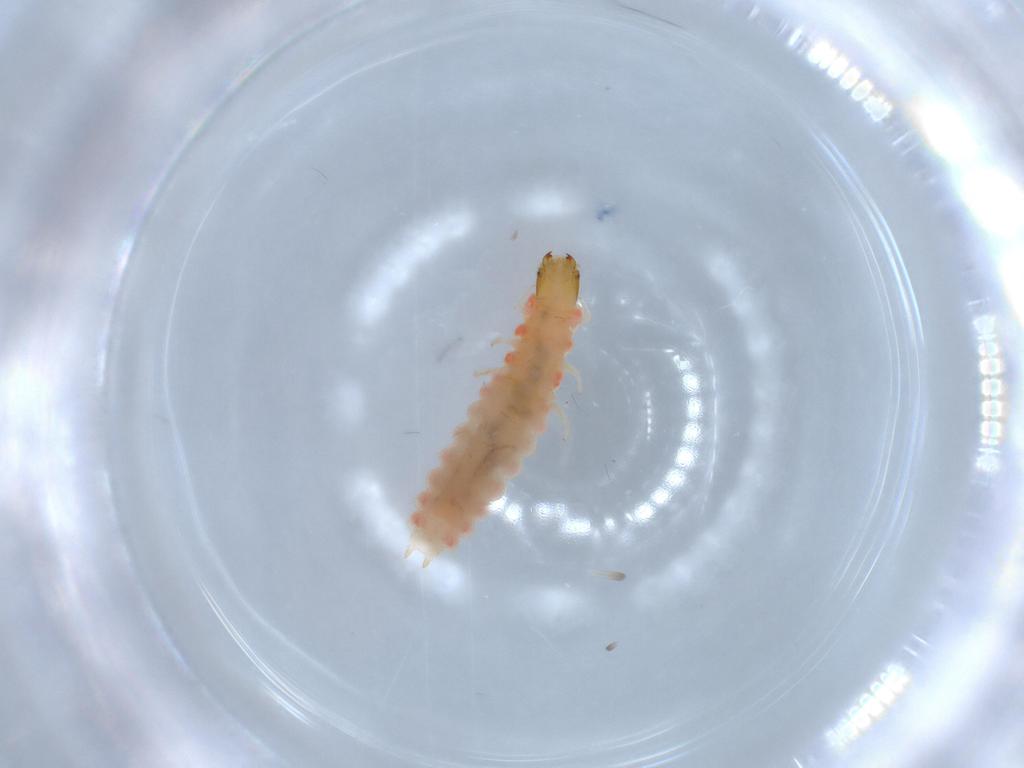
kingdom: Animalia
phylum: Arthropoda
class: Insecta
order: Coleoptera
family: Melyridae
